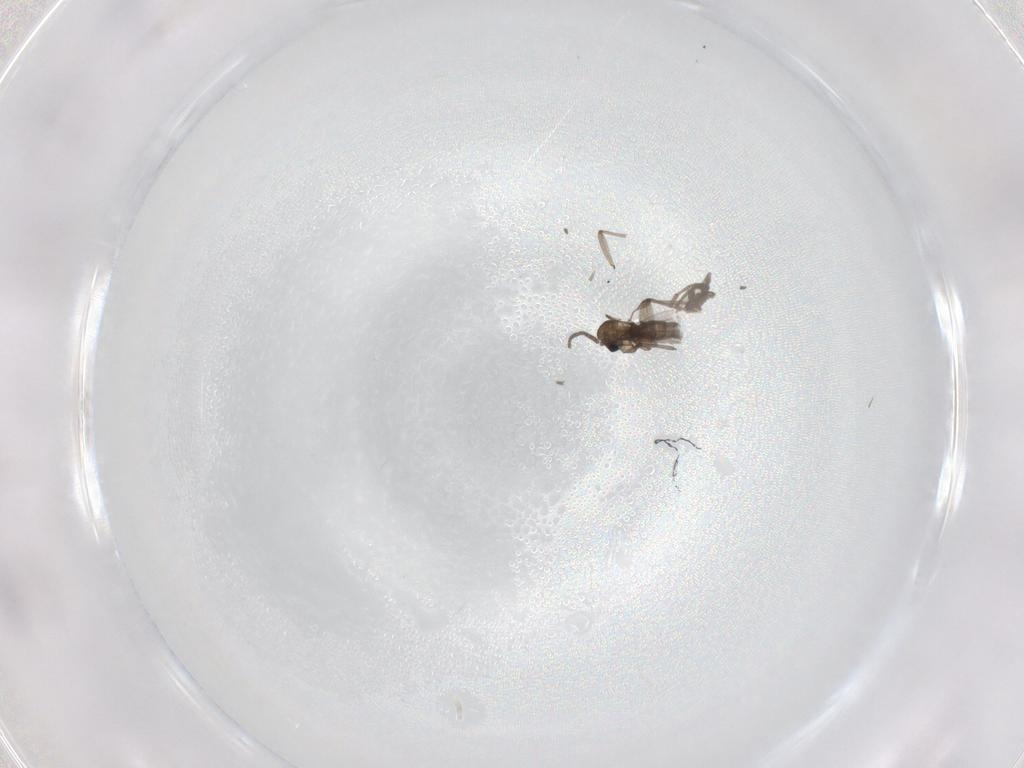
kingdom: Animalia
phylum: Arthropoda
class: Insecta
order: Diptera
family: Sciaridae
